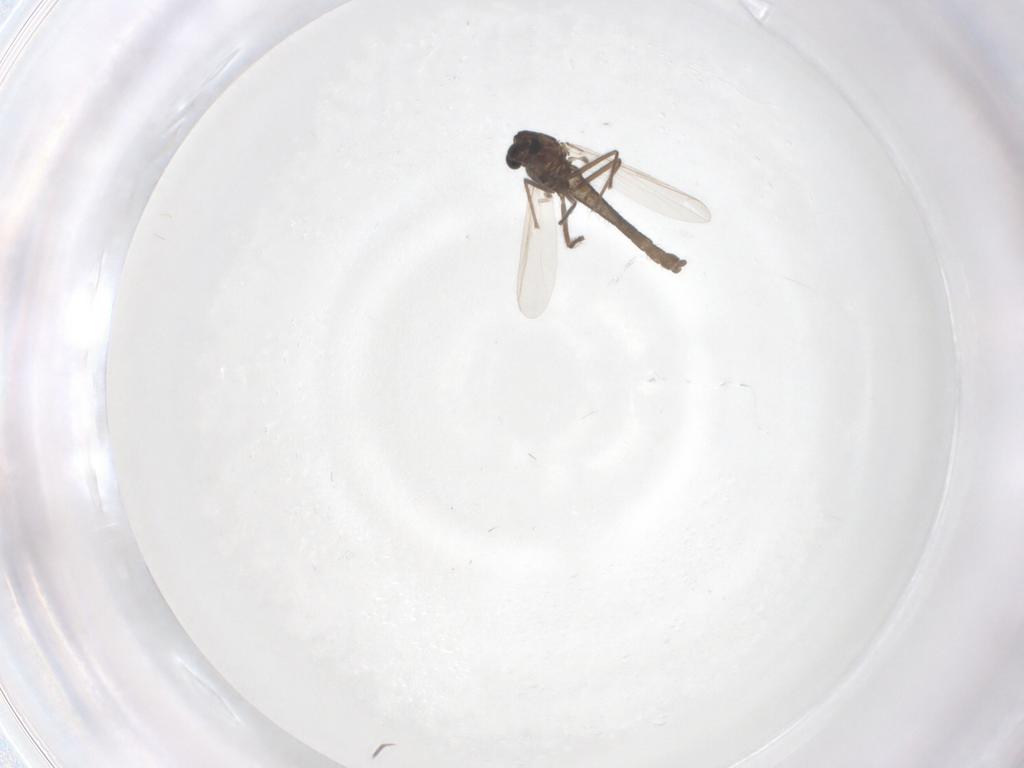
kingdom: Animalia
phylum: Arthropoda
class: Insecta
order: Diptera
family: Chironomidae
